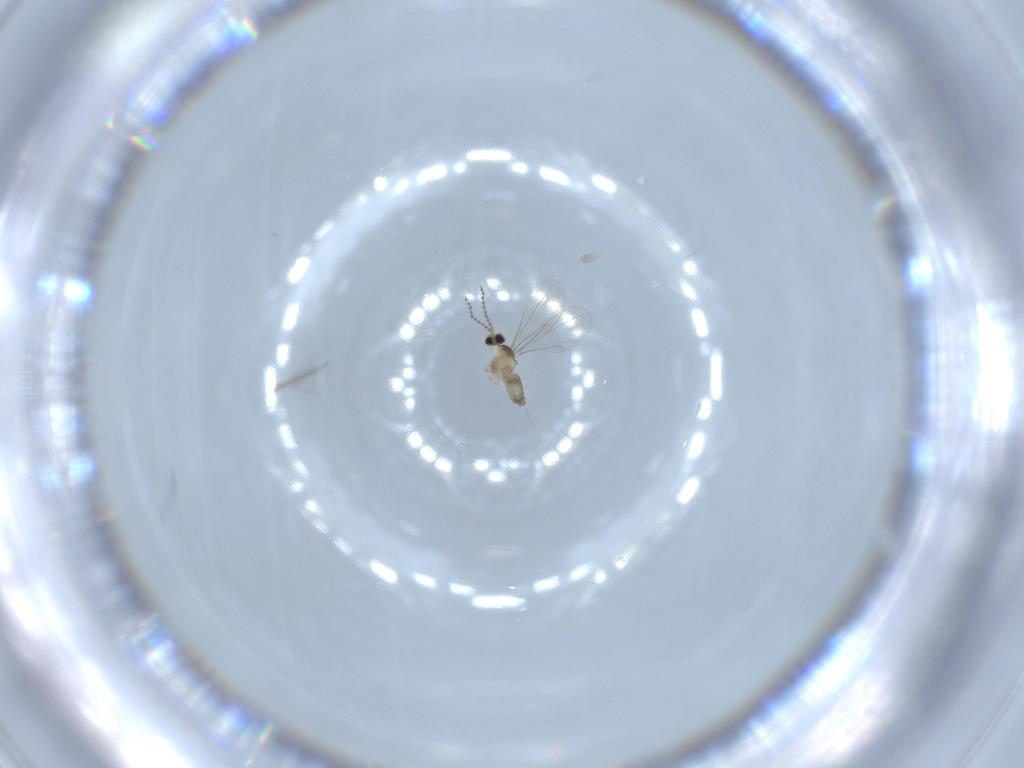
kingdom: Animalia
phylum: Arthropoda
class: Insecta
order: Diptera
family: Cecidomyiidae
